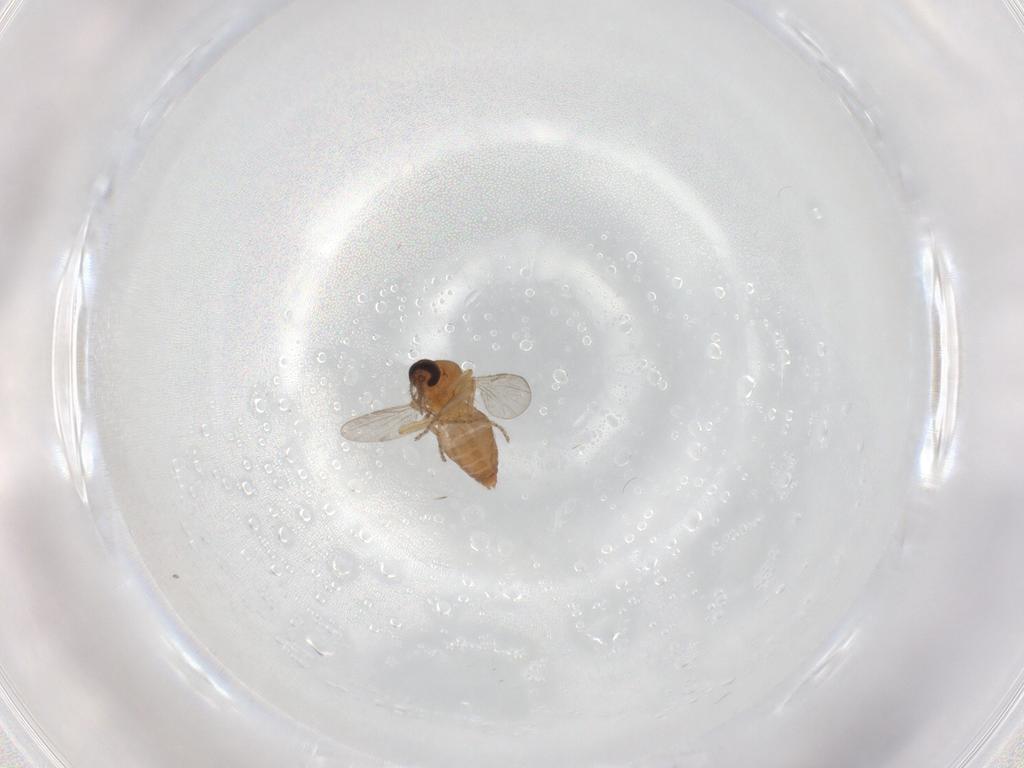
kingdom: Animalia
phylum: Arthropoda
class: Insecta
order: Diptera
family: Ceratopogonidae
